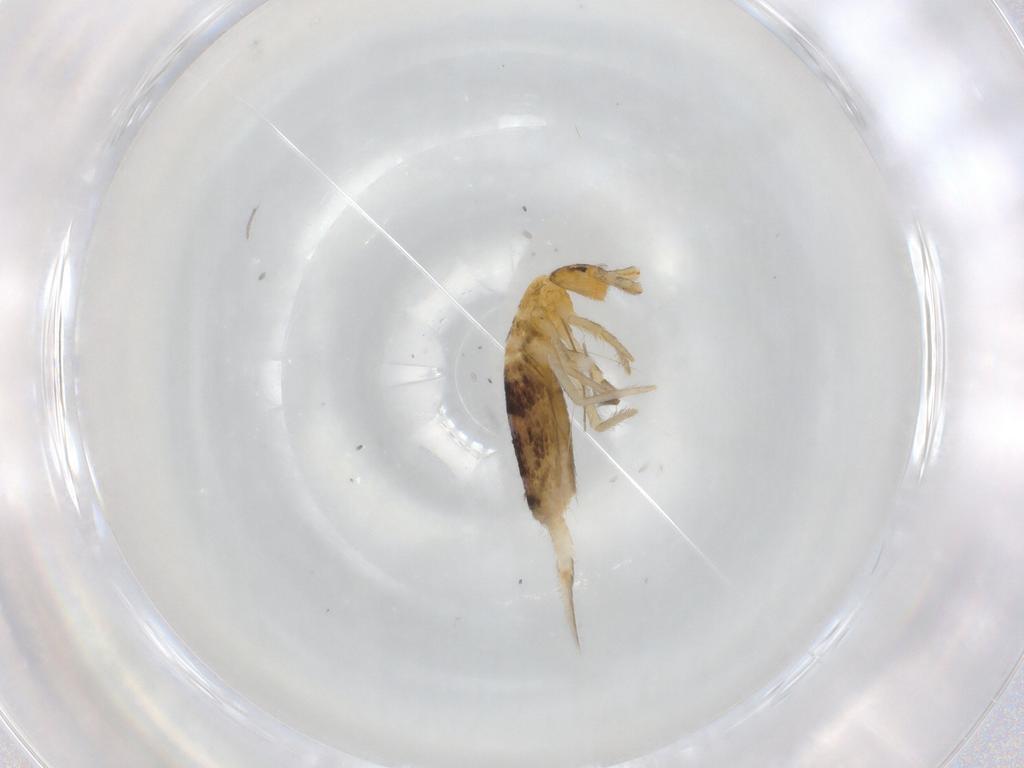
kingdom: Animalia
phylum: Arthropoda
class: Collembola
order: Entomobryomorpha
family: Entomobryidae
